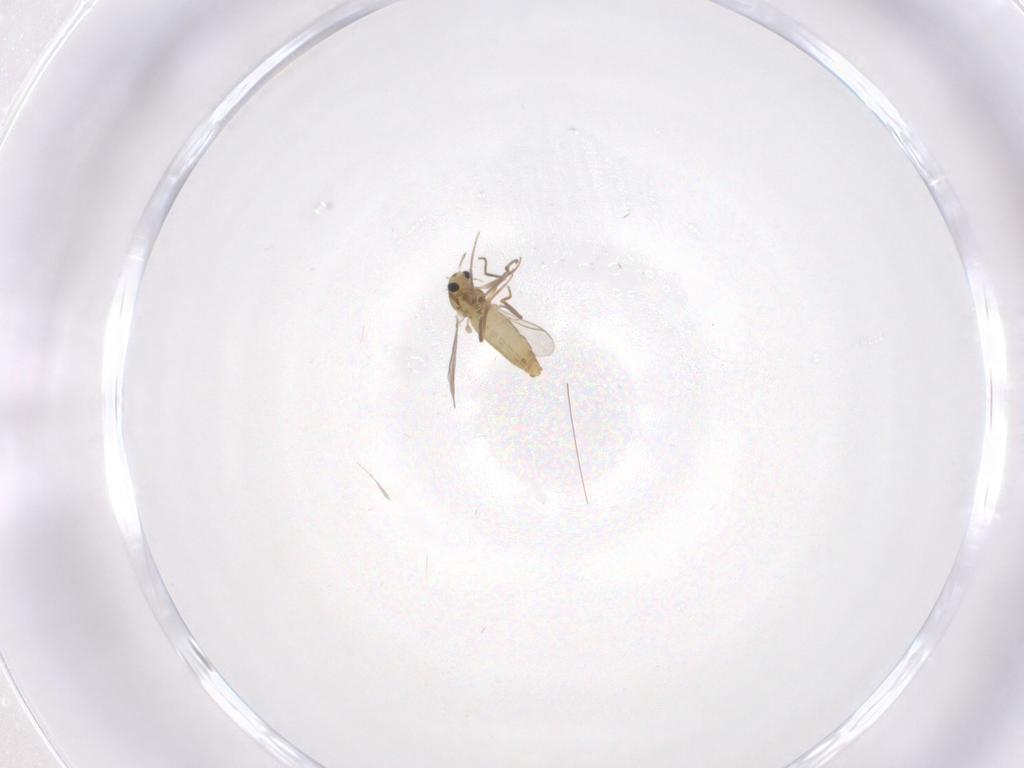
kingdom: Animalia
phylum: Arthropoda
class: Insecta
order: Diptera
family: Chironomidae
